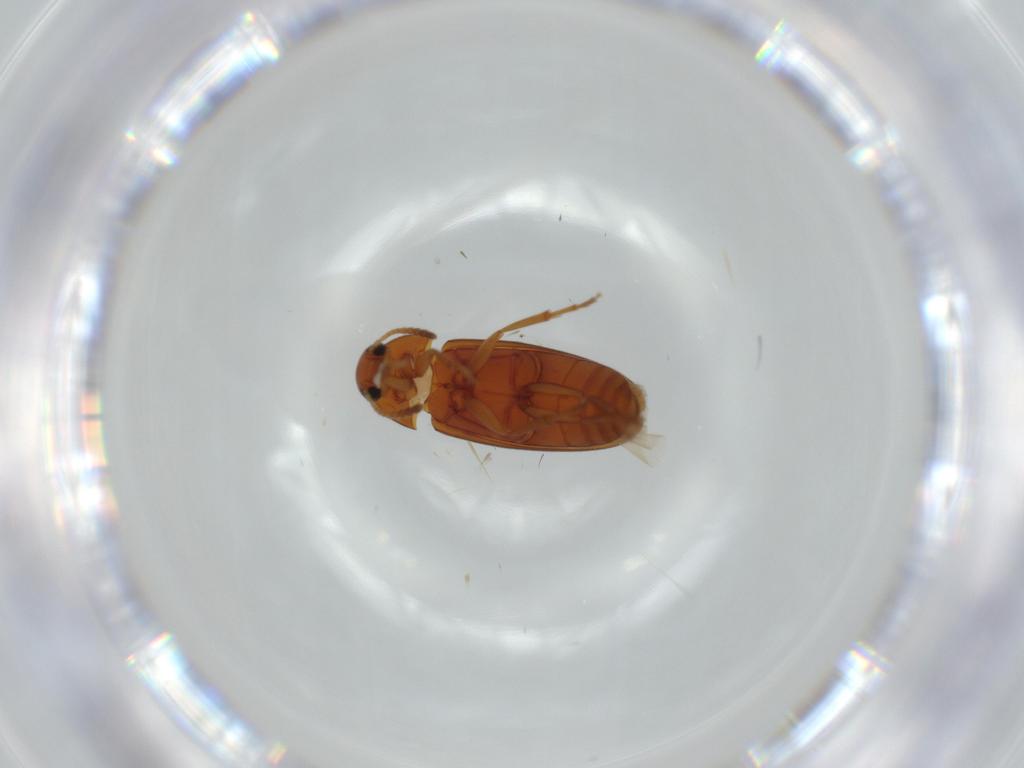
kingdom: Animalia
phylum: Arthropoda
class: Insecta
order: Coleoptera
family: Scraptiidae
